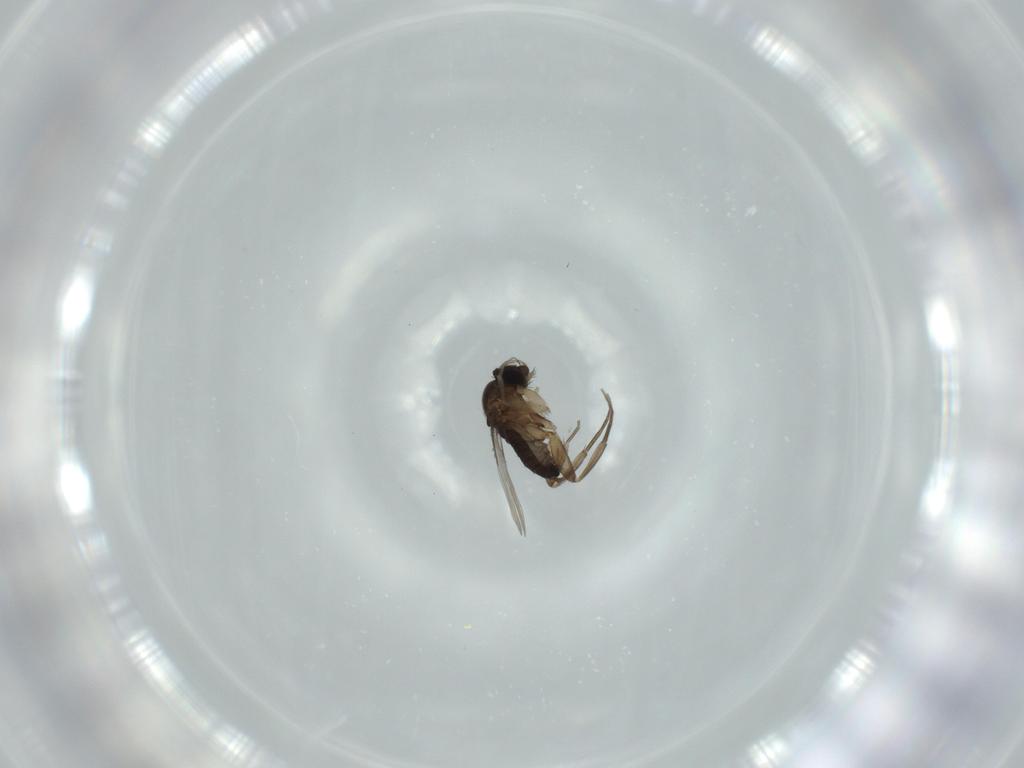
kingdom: Animalia
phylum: Arthropoda
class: Insecta
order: Diptera
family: Phoridae
